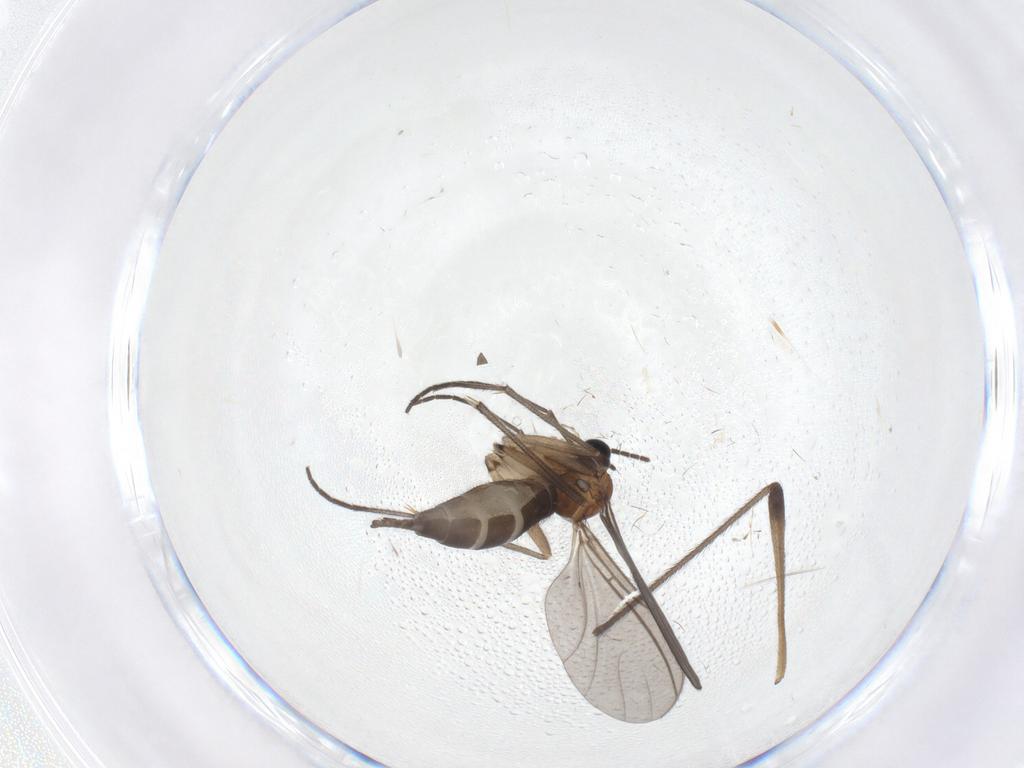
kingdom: Animalia
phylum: Arthropoda
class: Insecta
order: Diptera
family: Sciaridae
